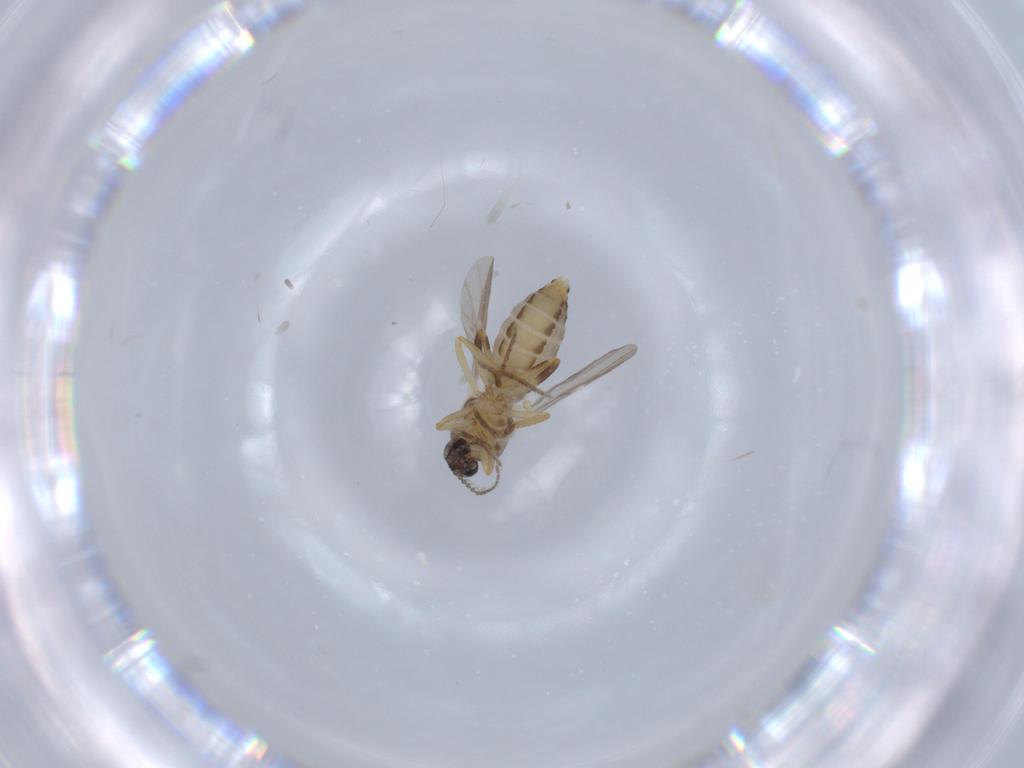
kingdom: Animalia
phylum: Arthropoda
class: Insecta
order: Diptera
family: Ceratopogonidae
